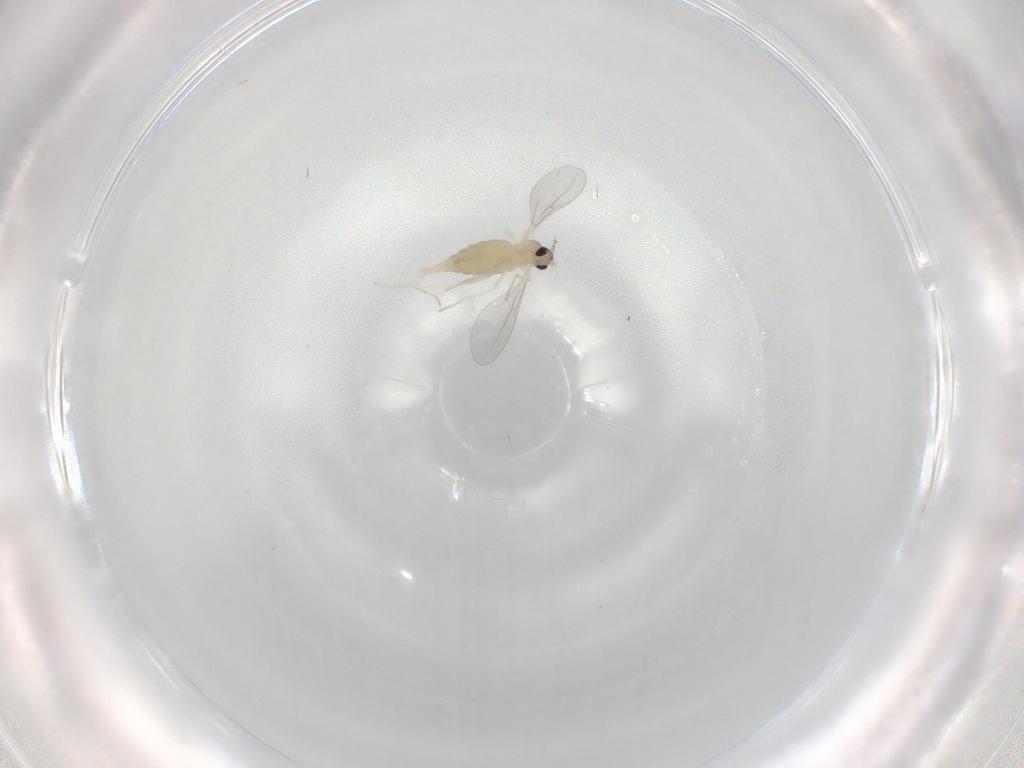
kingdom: Animalia
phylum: Arthropoda
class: Insecta
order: Diptera
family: Cecidomyiidae
